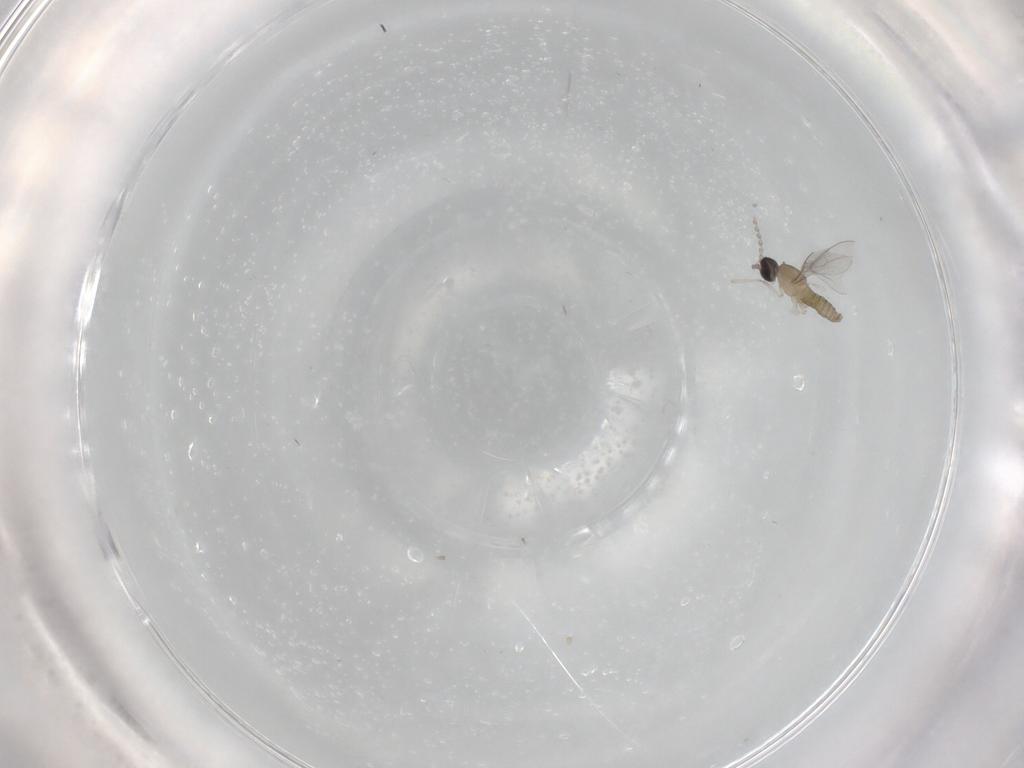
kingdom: Animalia
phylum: Arthropoda
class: Insecta
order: Diptera
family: Cecidomyiidae
